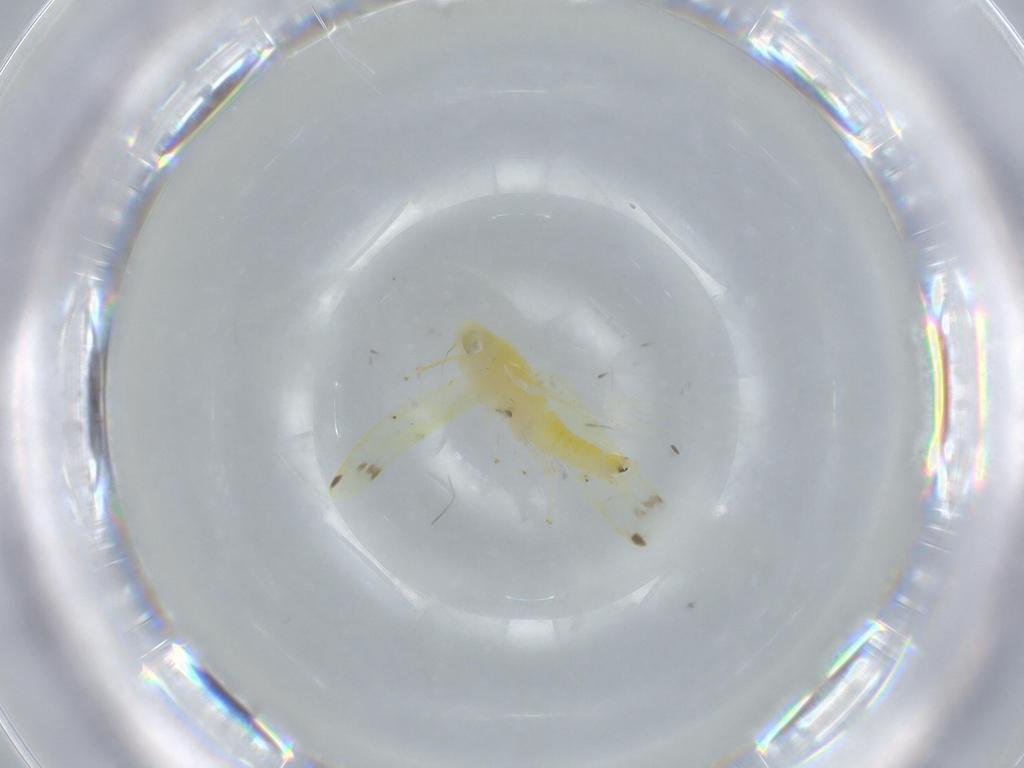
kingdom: Animalia
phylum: Arthropoda
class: Insecta
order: Hemiptera
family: Cicadellidae
